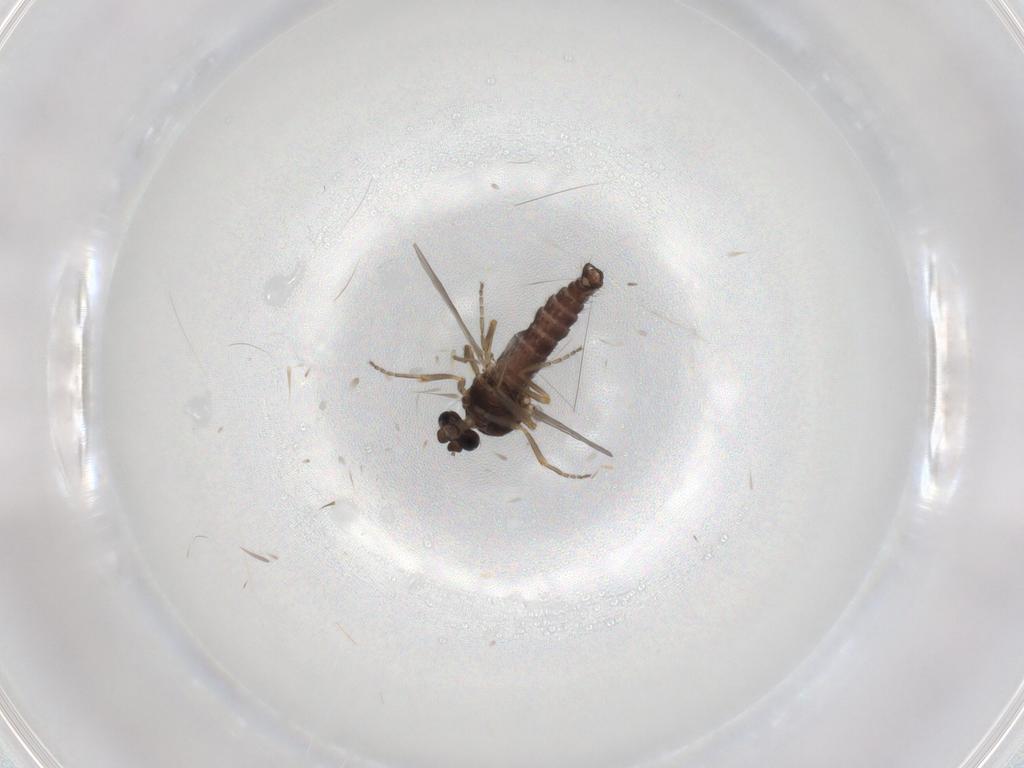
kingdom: Animalia
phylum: Arthropoda
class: Insecta
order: Diptera
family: Ceratopogonidae
